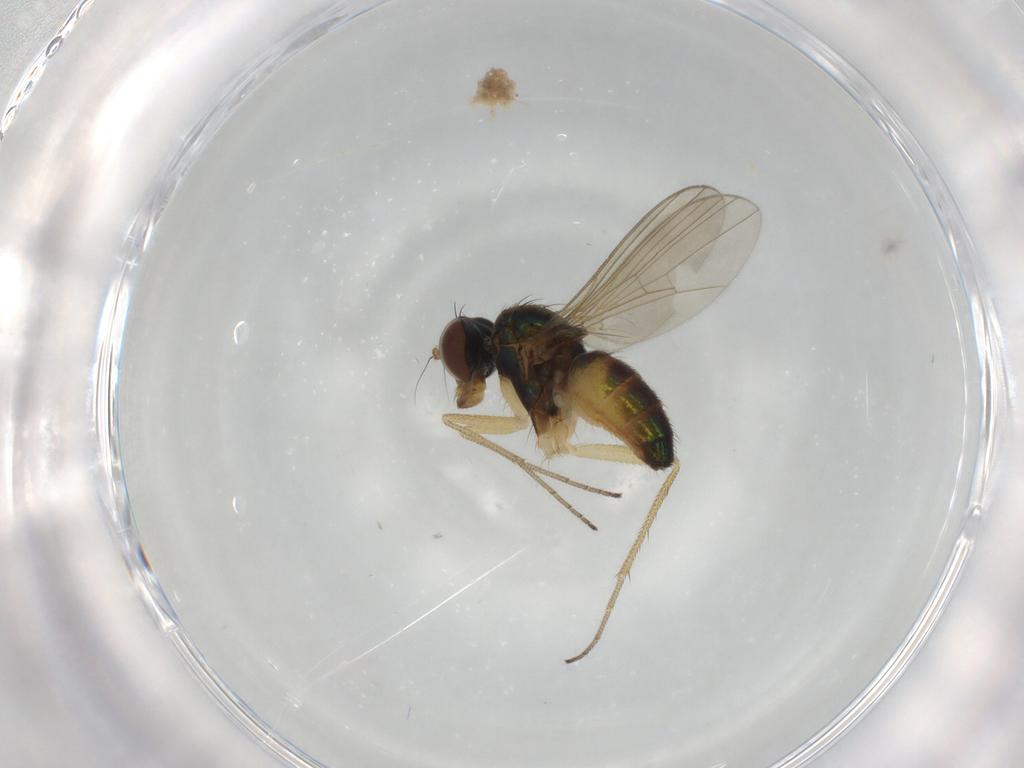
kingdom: Animalia
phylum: Arthropoda
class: Insecta
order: Diptera
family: Dolichopodidae
